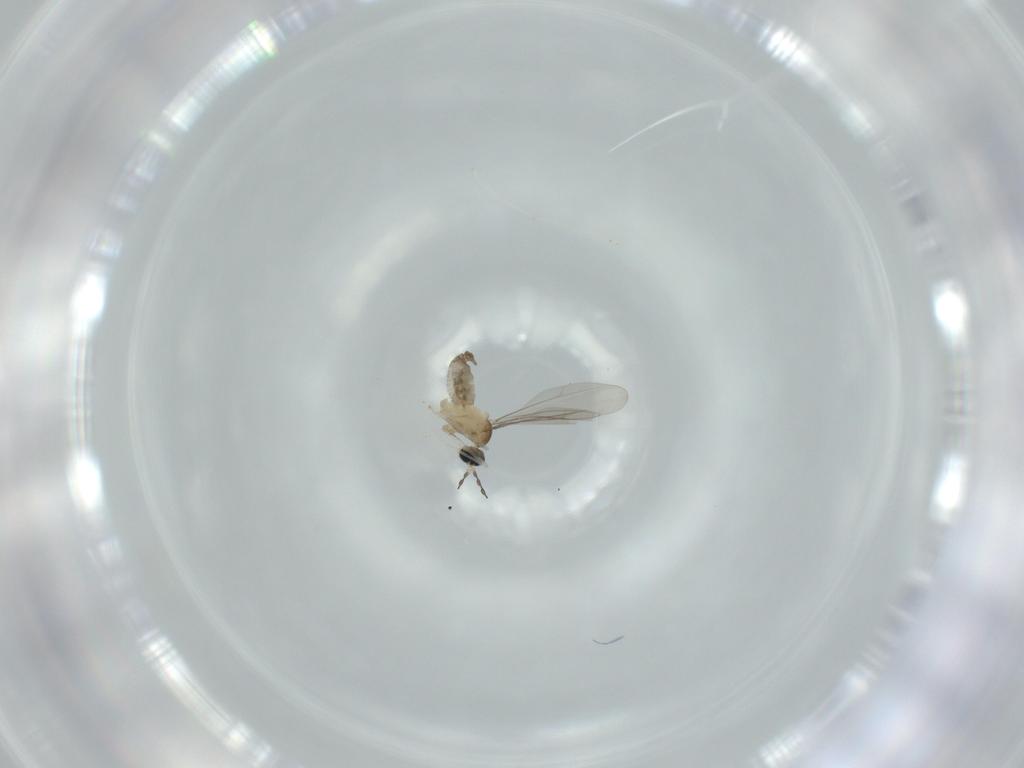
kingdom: Animalia
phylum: Arthropoda
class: Insecta
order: Diptera
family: Cecidomyiidae
